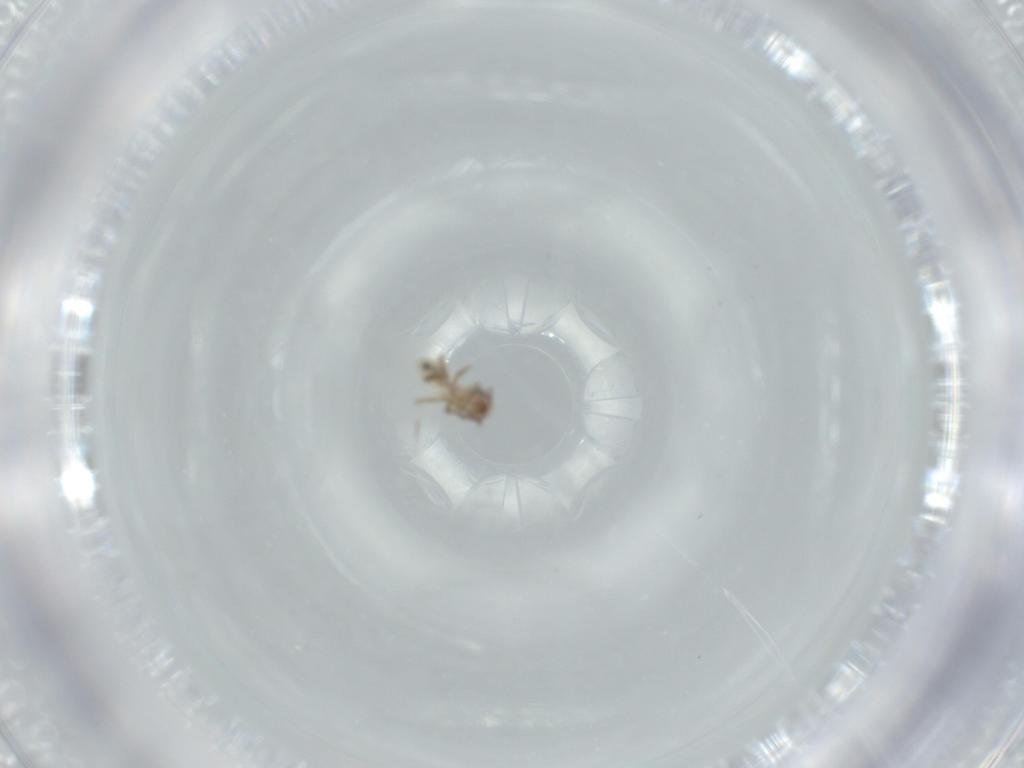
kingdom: Animalia
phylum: Arthropoda
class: Insecta
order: Psocodea
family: Lepidopsocidae
